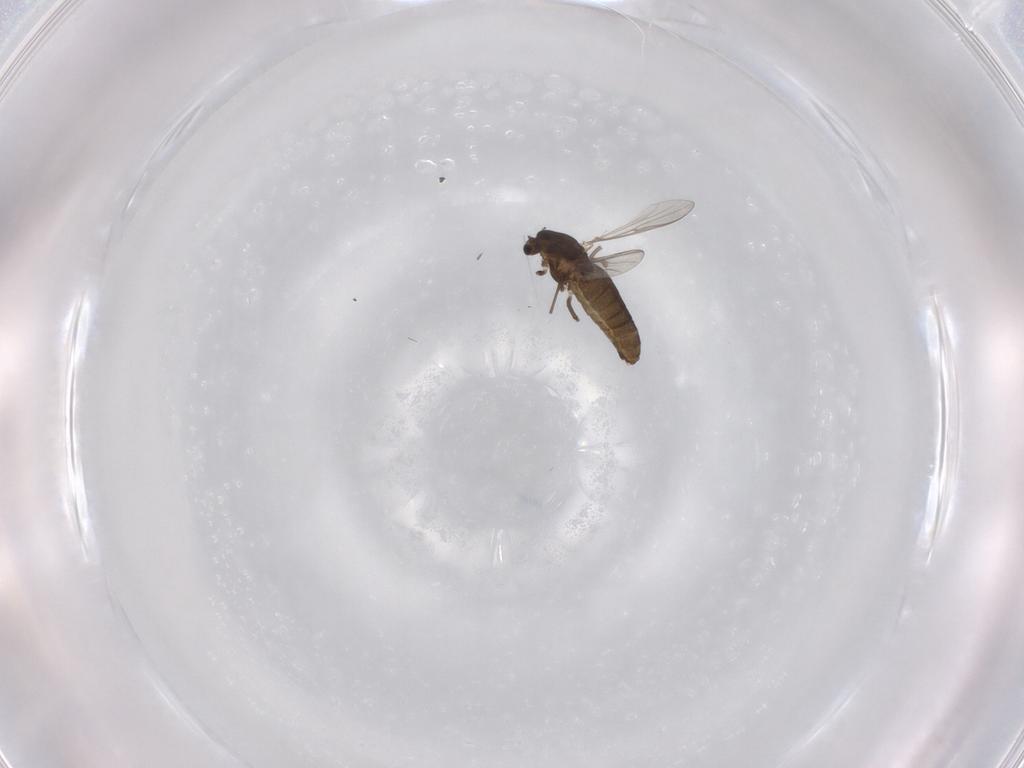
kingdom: Animalia
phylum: Arthropoda
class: Insecta
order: Diptera
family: Chironomidae
